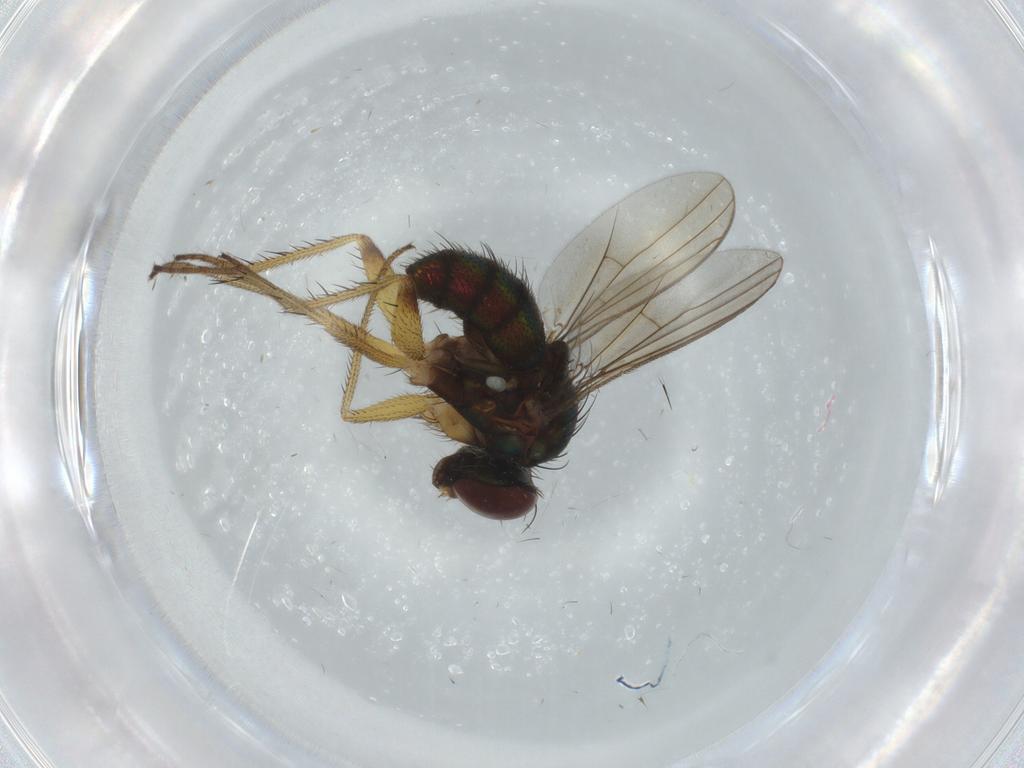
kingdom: Animalia
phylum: Arthropoda
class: Insecta
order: Diptera
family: Dolichopodidae
